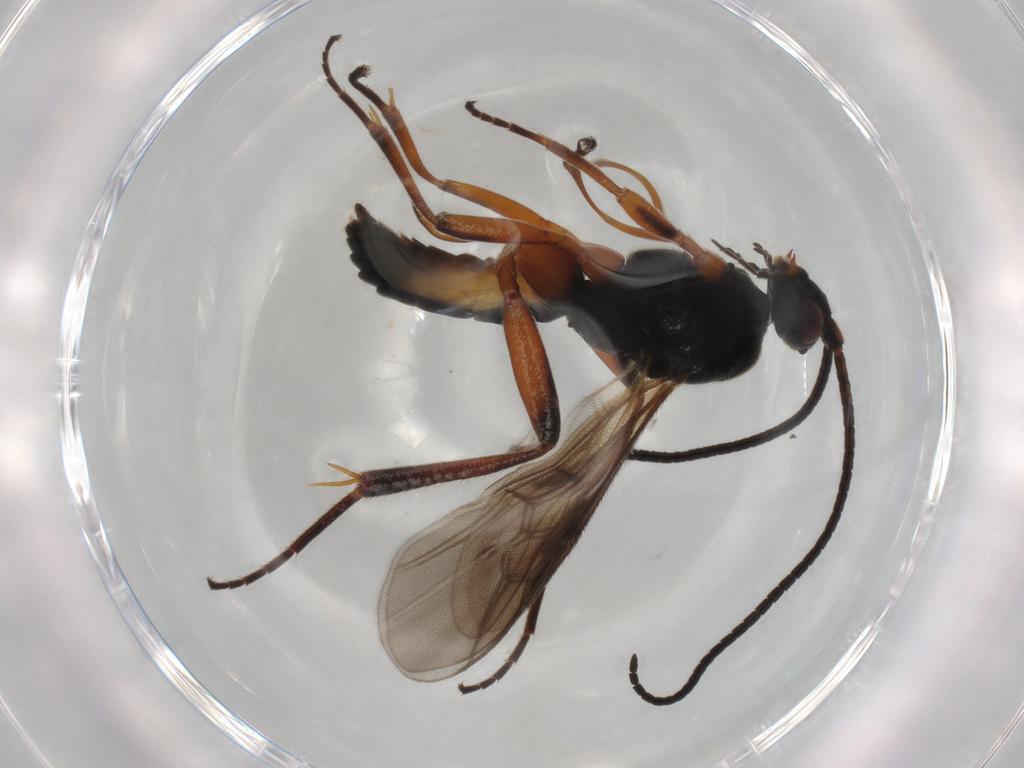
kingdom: Animalia
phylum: Arthropoda
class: Insecta
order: Hymenoptera
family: Braconidae
